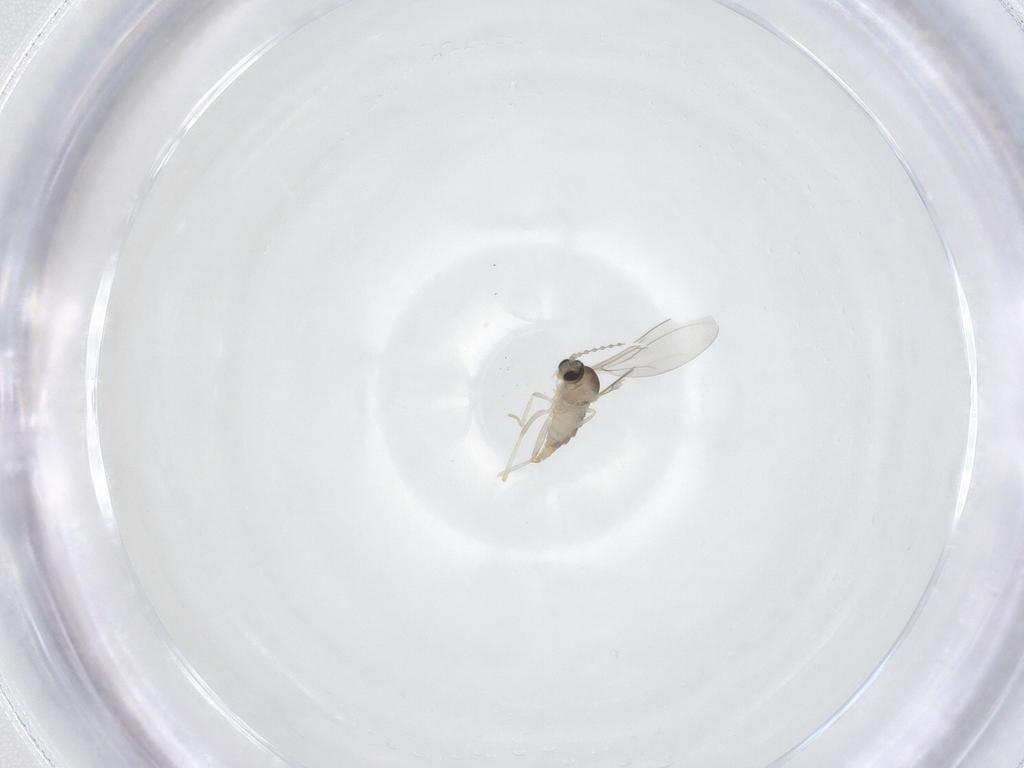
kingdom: Animalia
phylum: Arthropoda
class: Insecta
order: Diptera
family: Cecidomyiidae
